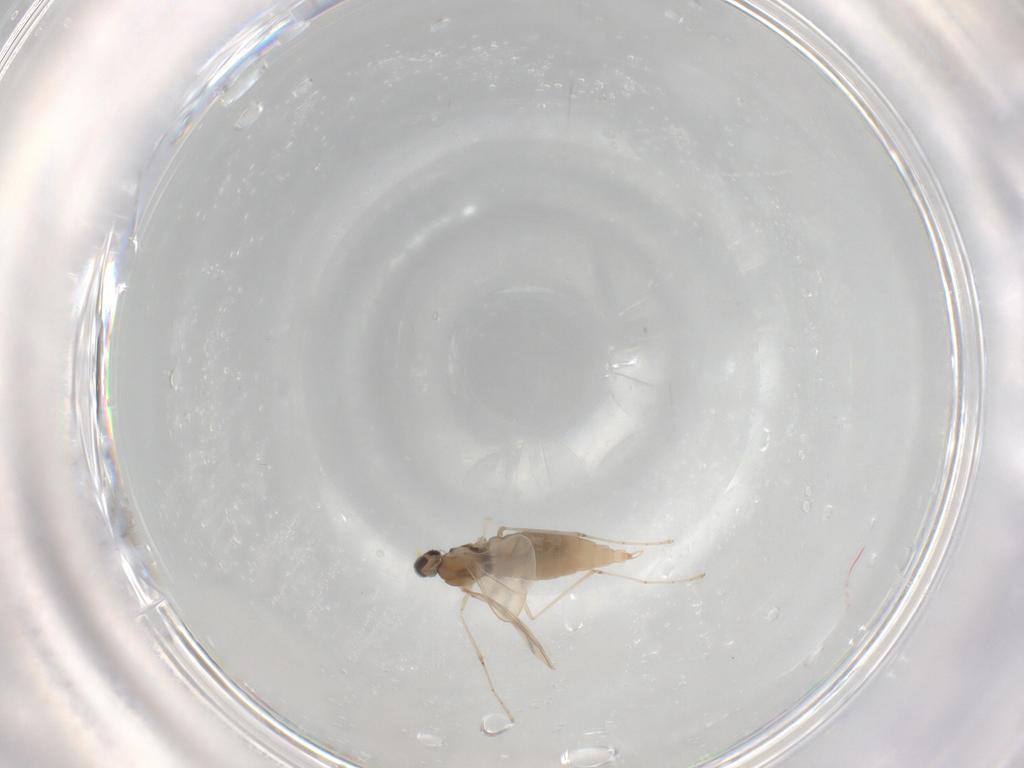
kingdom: Animalia
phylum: Arthropoda
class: Insecta
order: Diptera
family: Cecidomyiidae
